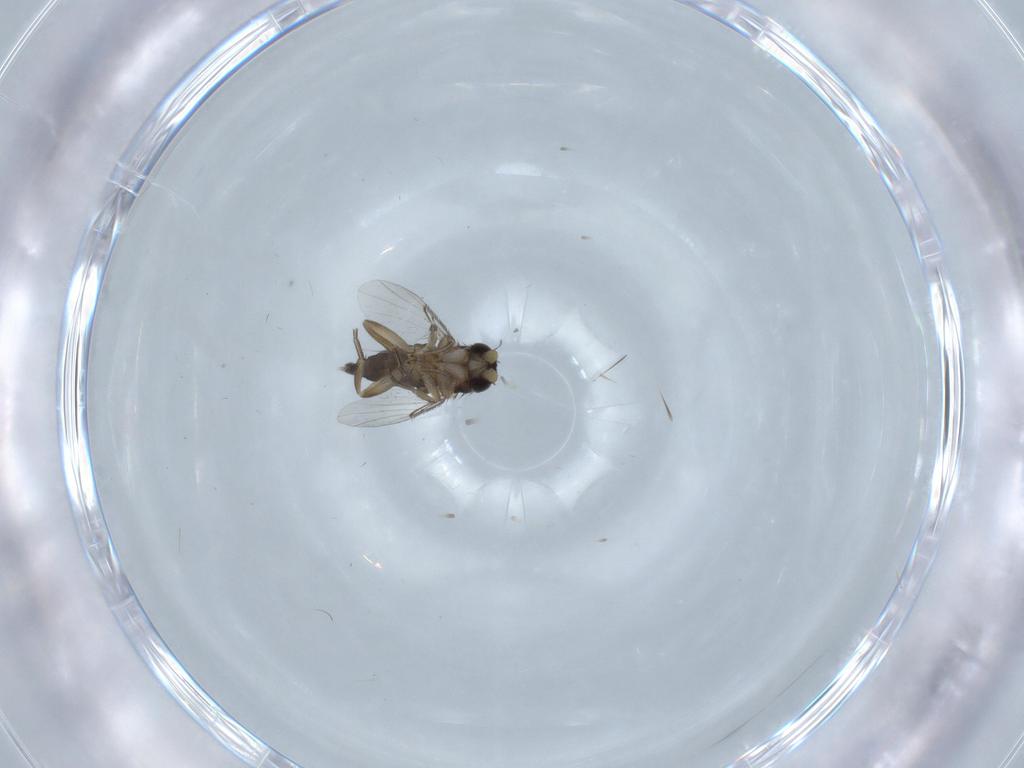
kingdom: Animalia
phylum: Arthropoda
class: Insecta
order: Diptera
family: Phoridae
